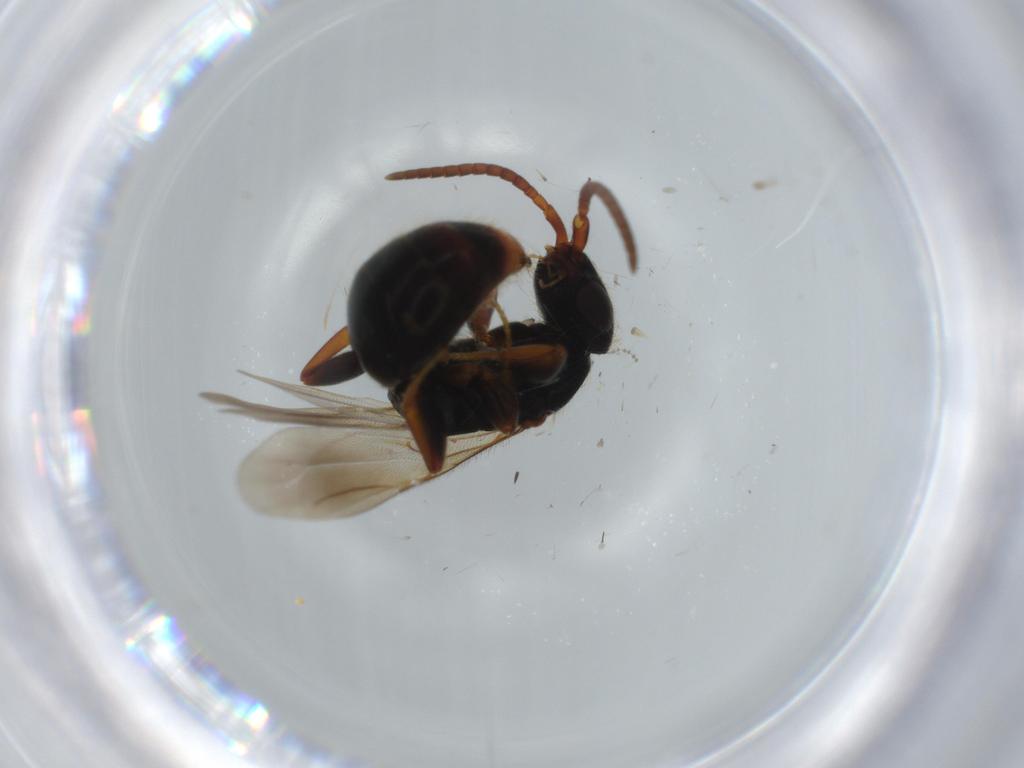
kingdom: Animalia
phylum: Arthropoda
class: Insecta
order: Hymenoptera
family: Bethylidae
